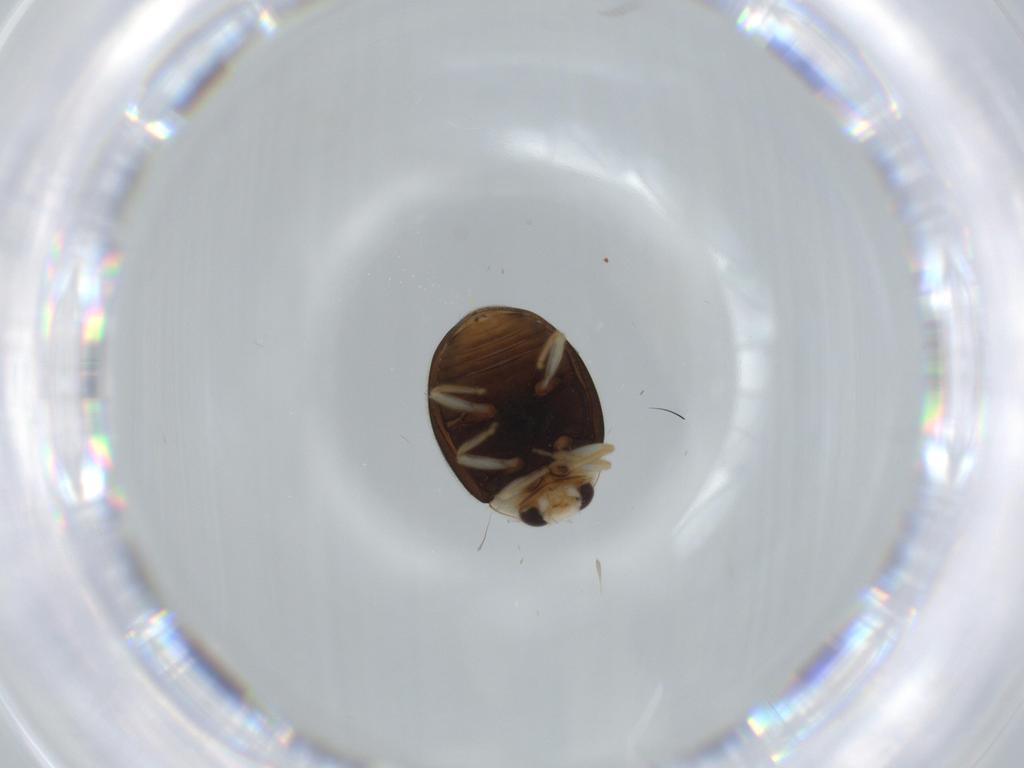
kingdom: Animalia
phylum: Arthropoda
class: Insecta
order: Coleoptera
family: Coccinellidae
